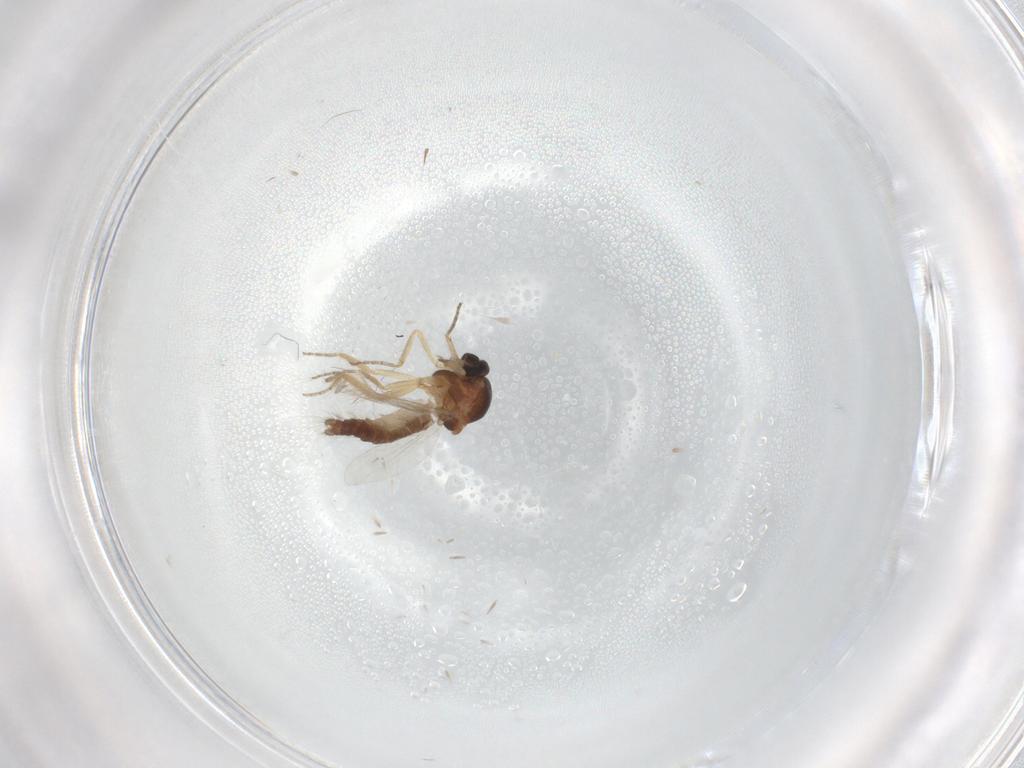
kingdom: Animalia
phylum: Arthropoda
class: Insecta
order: Diptera
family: Ceratopogonidae
